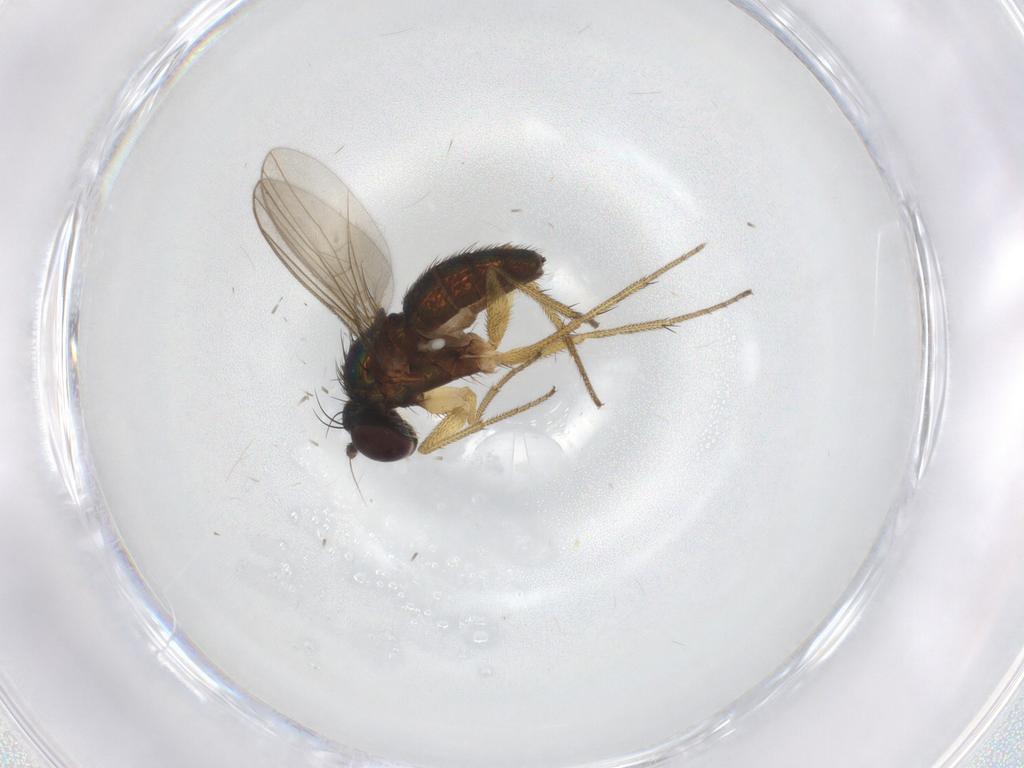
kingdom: Animalia
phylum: Arthropoda
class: Insecta
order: Diptera
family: Dolichopodidae
